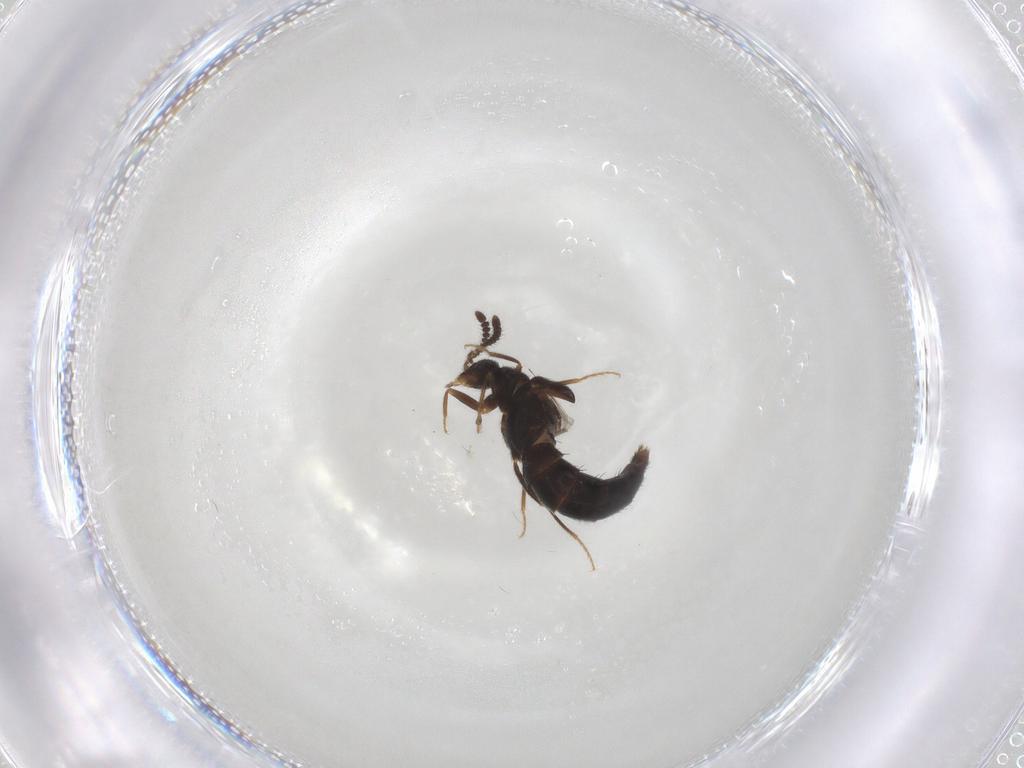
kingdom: Animalia
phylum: Arthropoda
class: Insecta
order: Coleoptera
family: Staphylinidae
